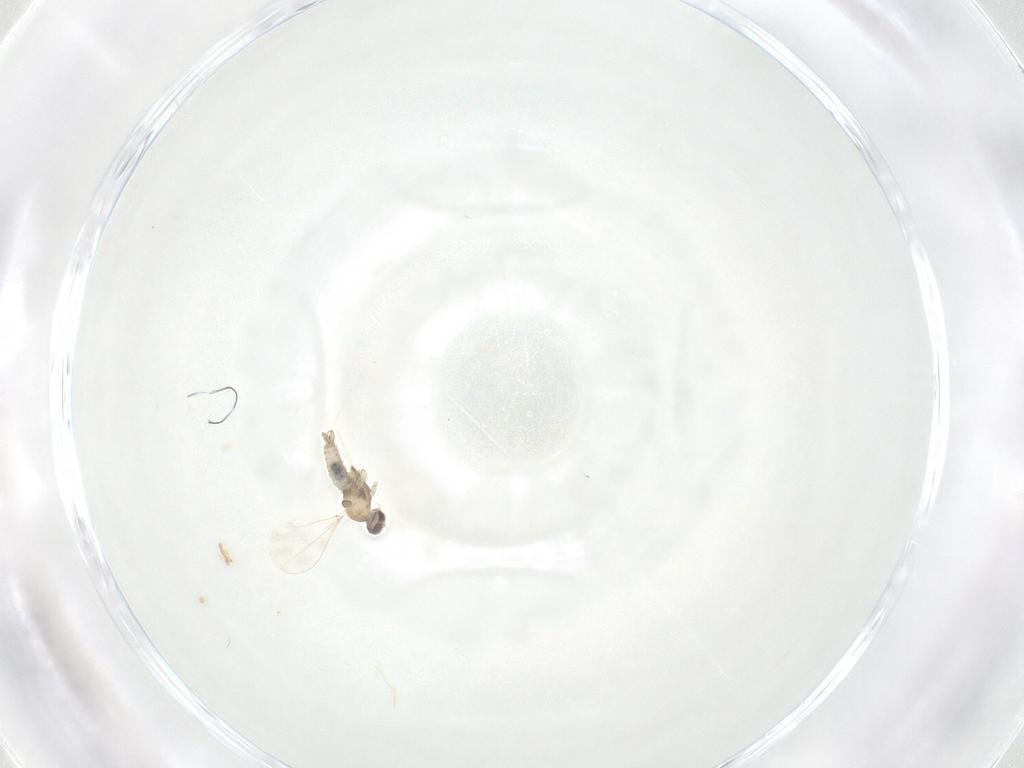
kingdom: Animalia
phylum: Arthropoda
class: Insecta
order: Diptera
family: Cecidomyiidae
